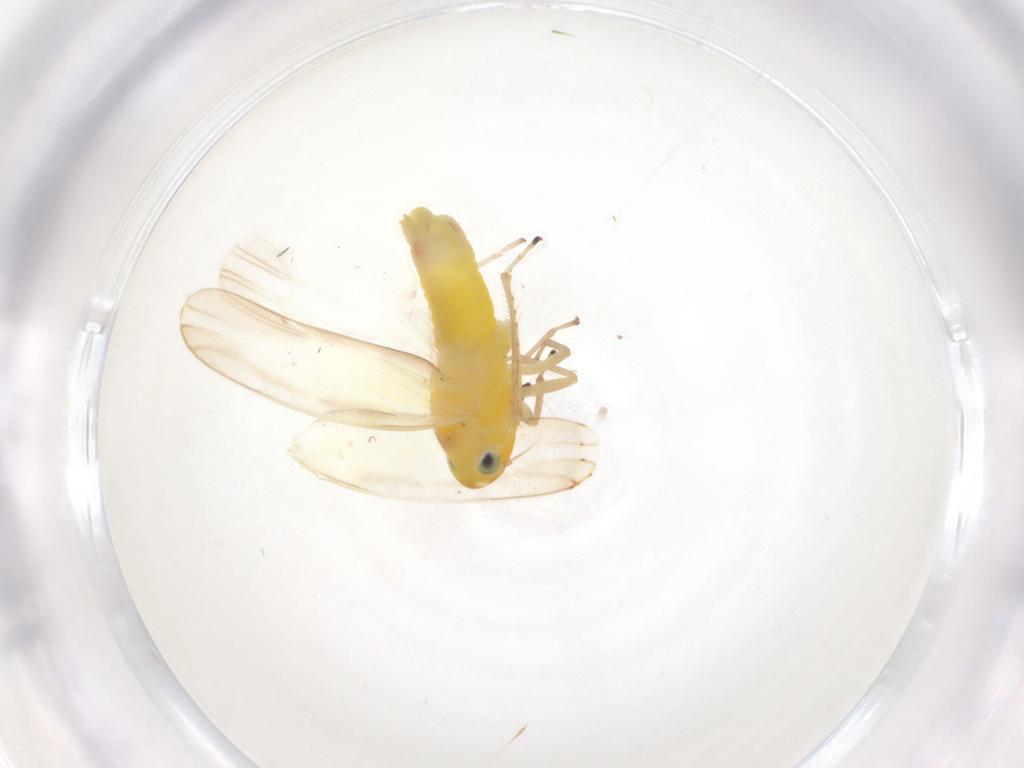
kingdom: Animalia
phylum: Arthropoda
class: Insecta
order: Hemiptera
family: Cicadellidae
